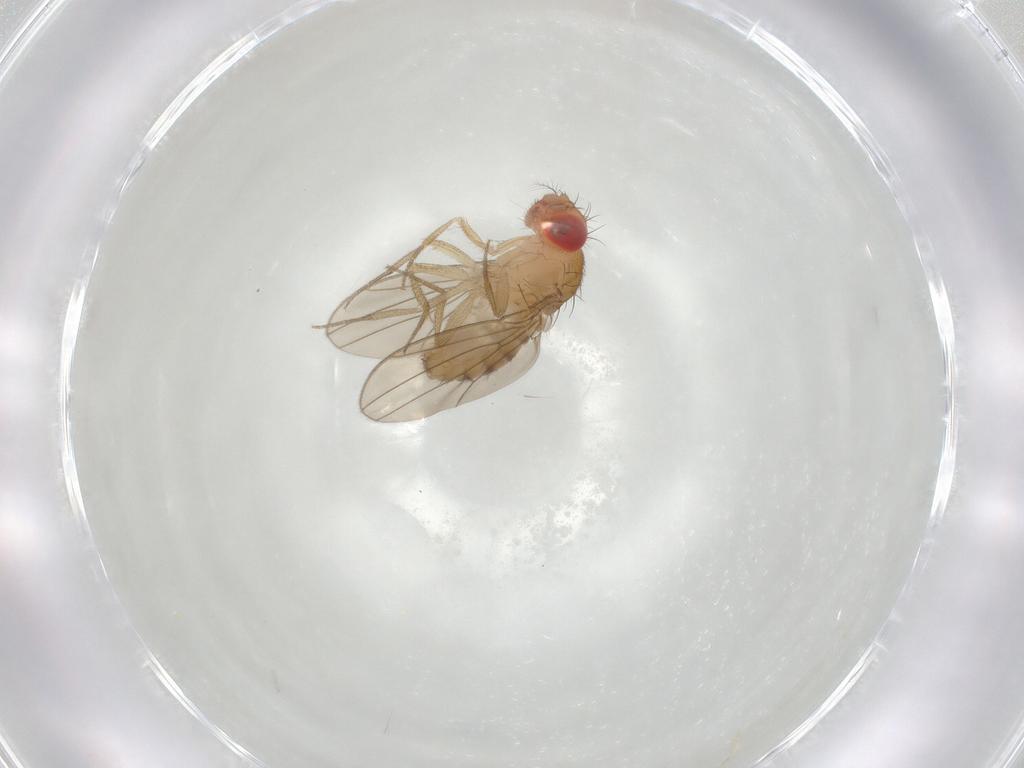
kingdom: Animalia
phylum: Arthropoda
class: Insecta
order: Diptera
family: Drosophilidae
